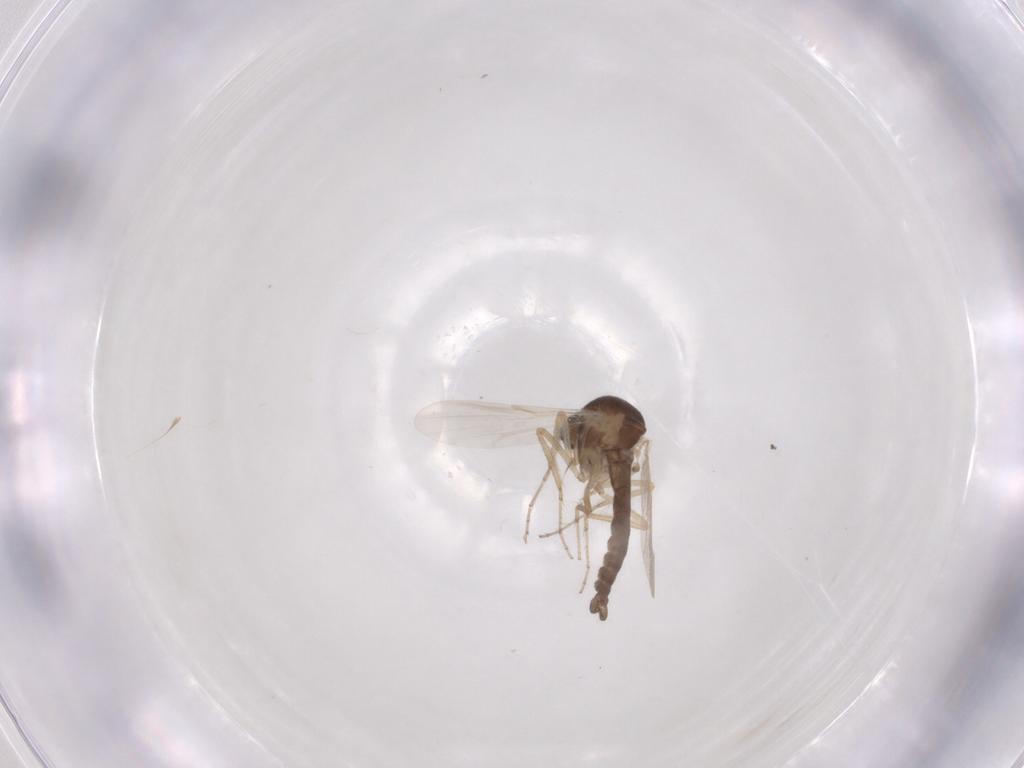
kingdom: Animalia
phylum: Arthropoda
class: Insecta
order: Diptera
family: Ceratopogonidae
